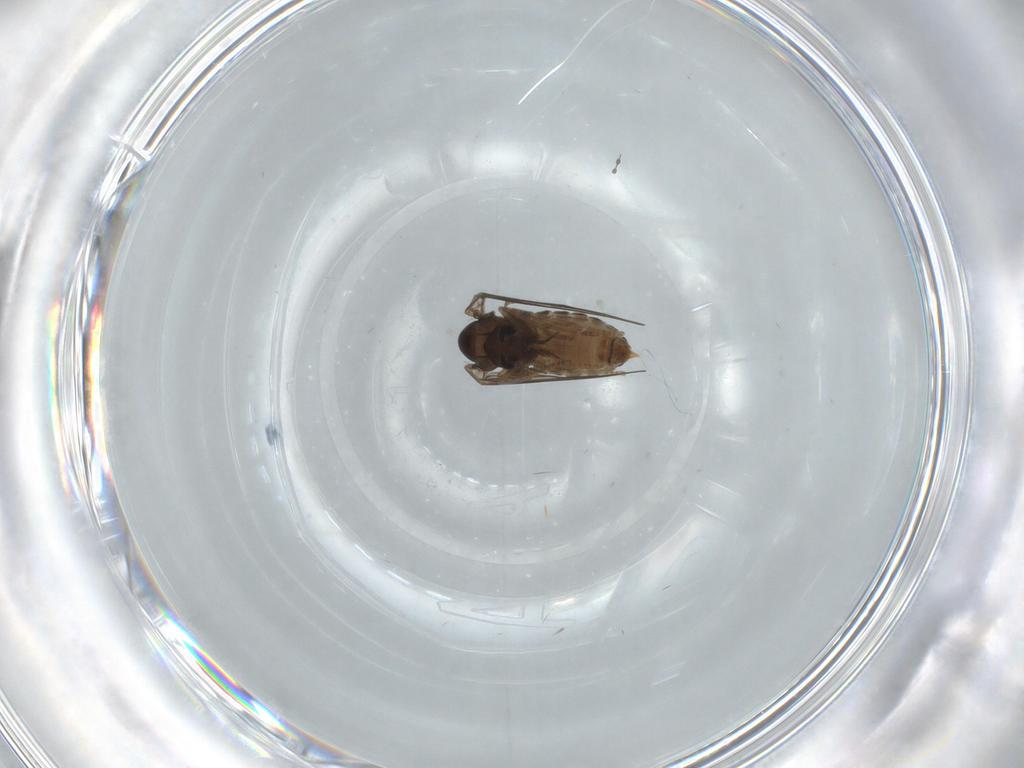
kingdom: Animalia
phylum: Arthropoda
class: Insecta
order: Diptera
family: Psychodidae
